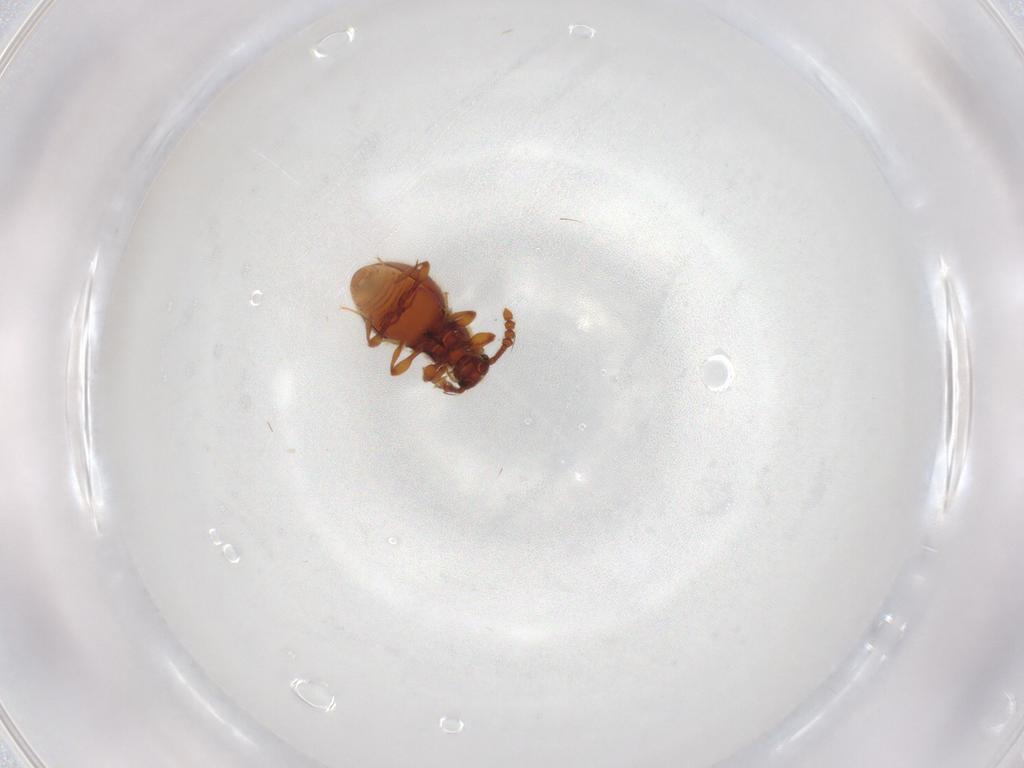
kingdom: Animalia
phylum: Arthropoda
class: Insecta
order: Coleoptera
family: Staphylinidae
